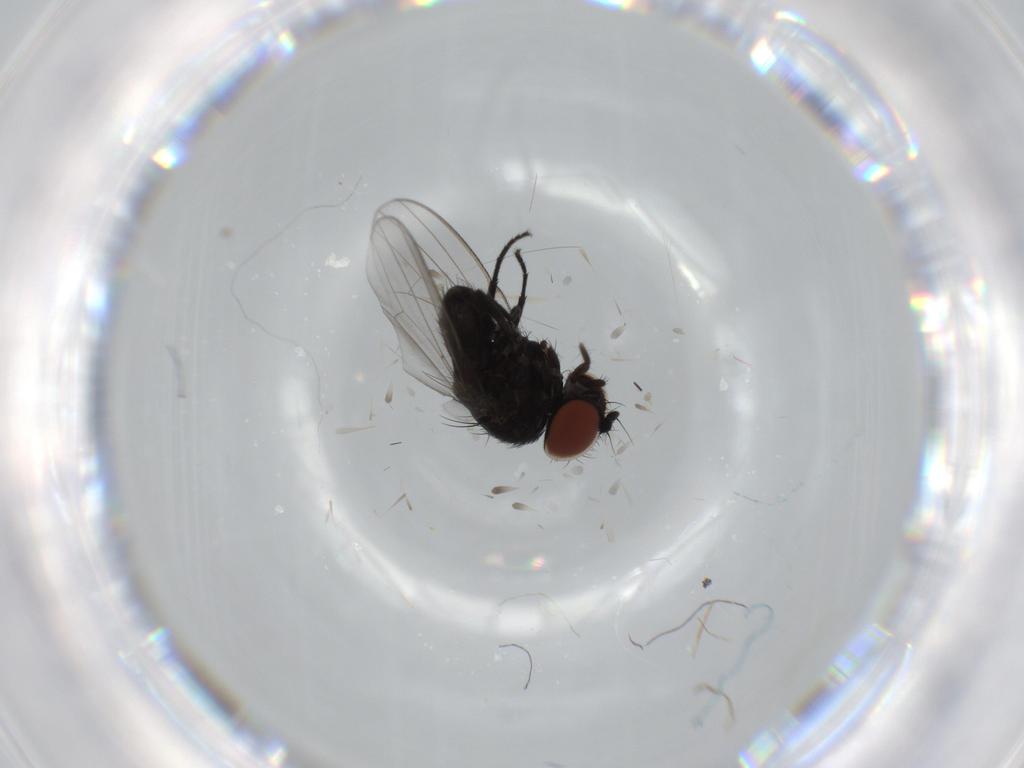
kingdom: Animalia
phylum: Arthropoda
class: Insecta
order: Diptera
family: Milichiidae
